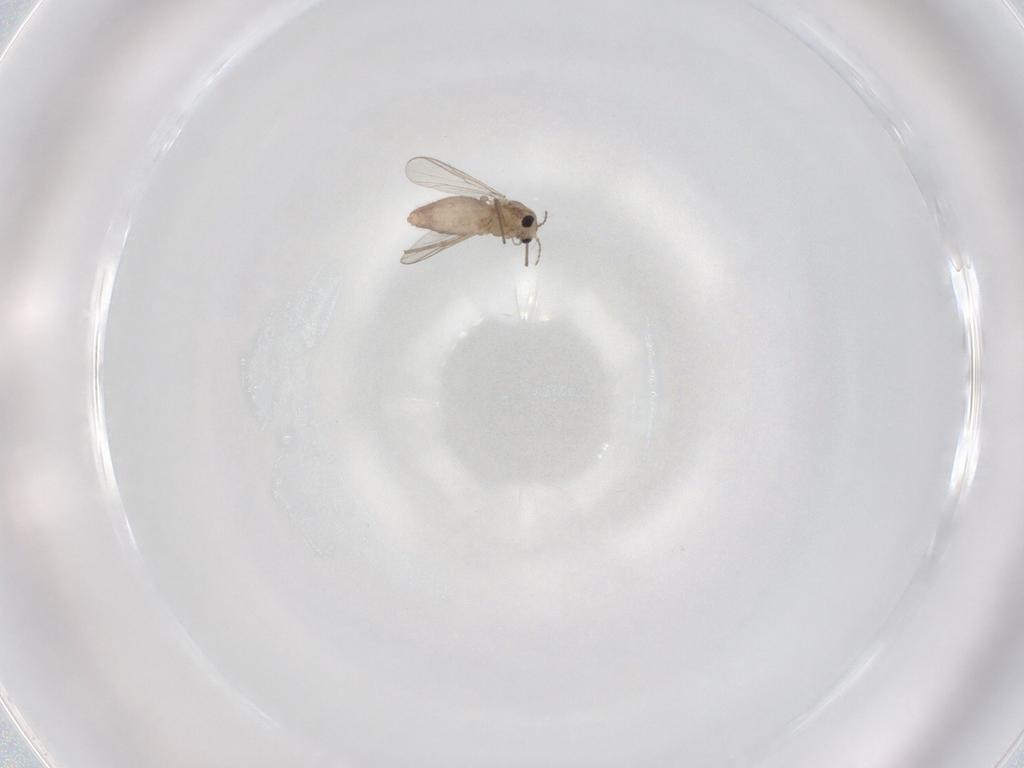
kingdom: Animalia
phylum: Arthropoda
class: Insecta
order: Diptera
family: Chironomidae
